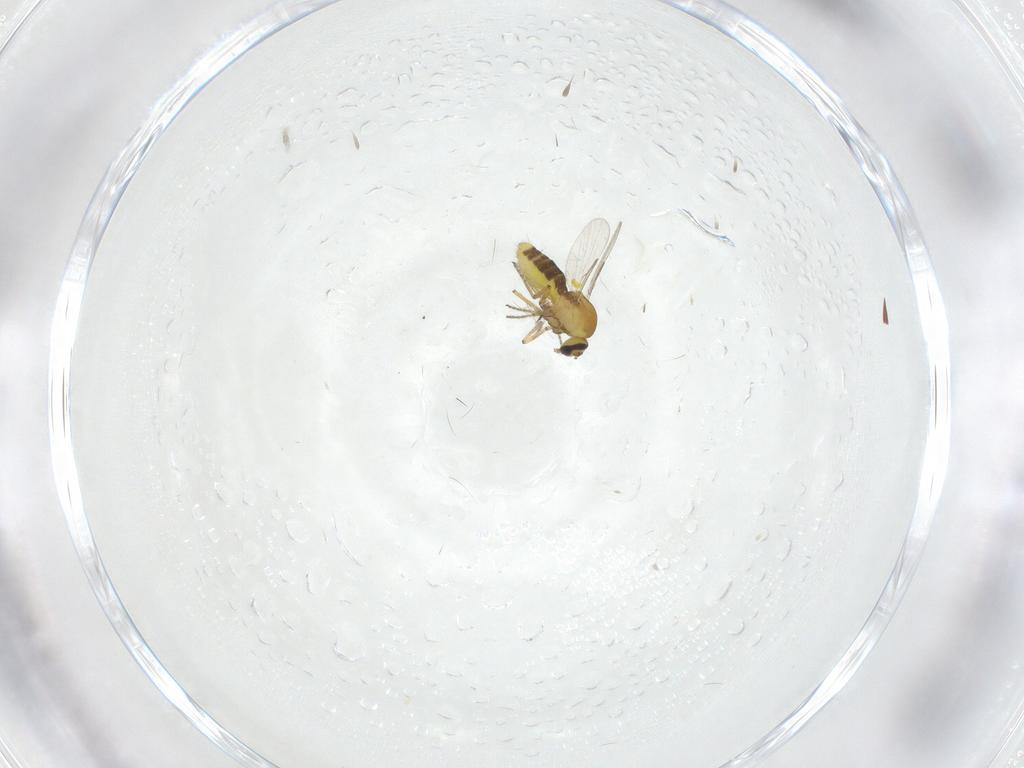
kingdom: Animalia
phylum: Arthropoda
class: Insecta
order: Diptera
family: Cecidomyiidae
